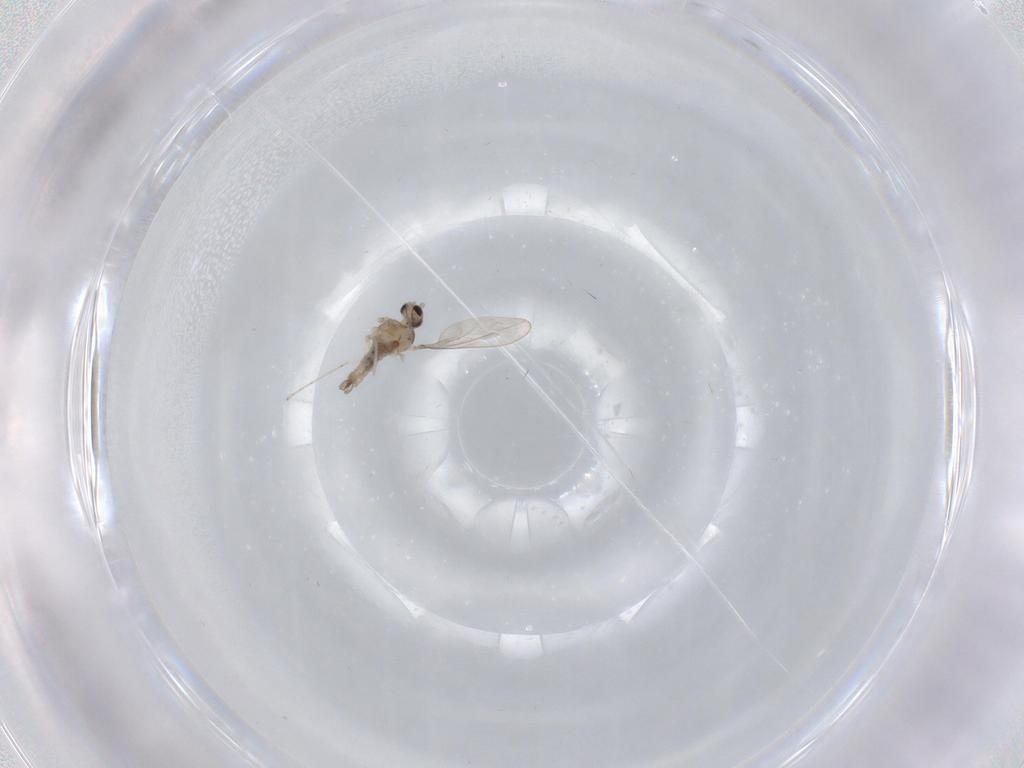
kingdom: Animalia
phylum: Arthropoda
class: Insecta
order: Diptera
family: Cecidomyiidae
